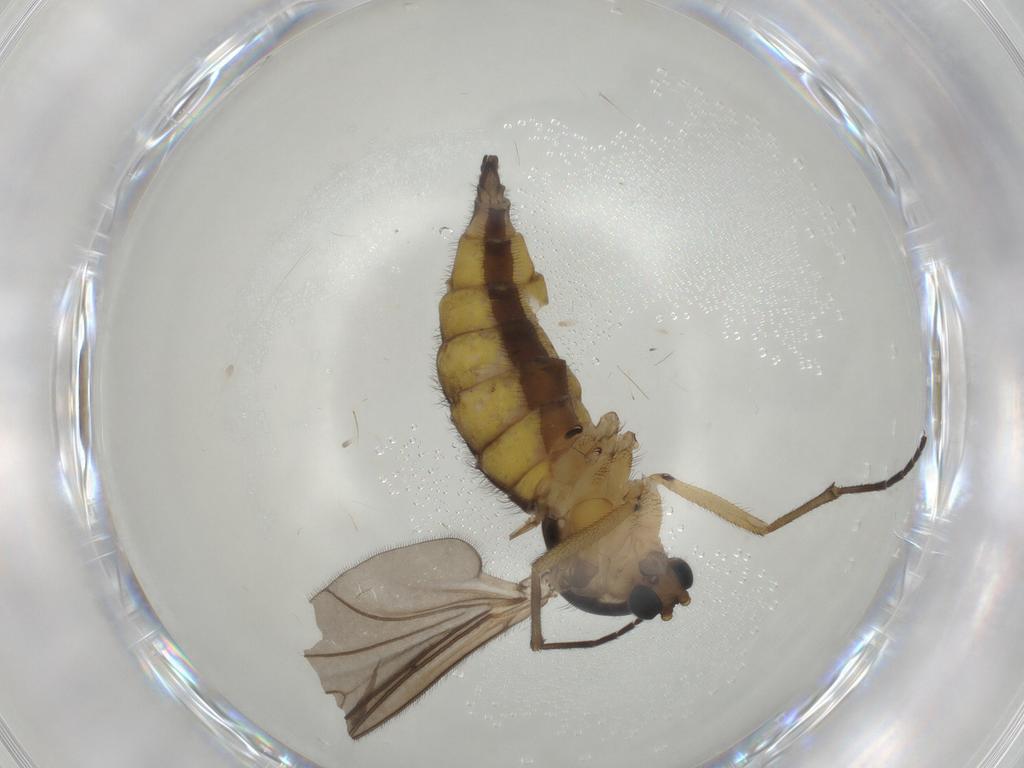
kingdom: Animalia
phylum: Arthropoda
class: Insecta
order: Diptera
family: Sciaridae
